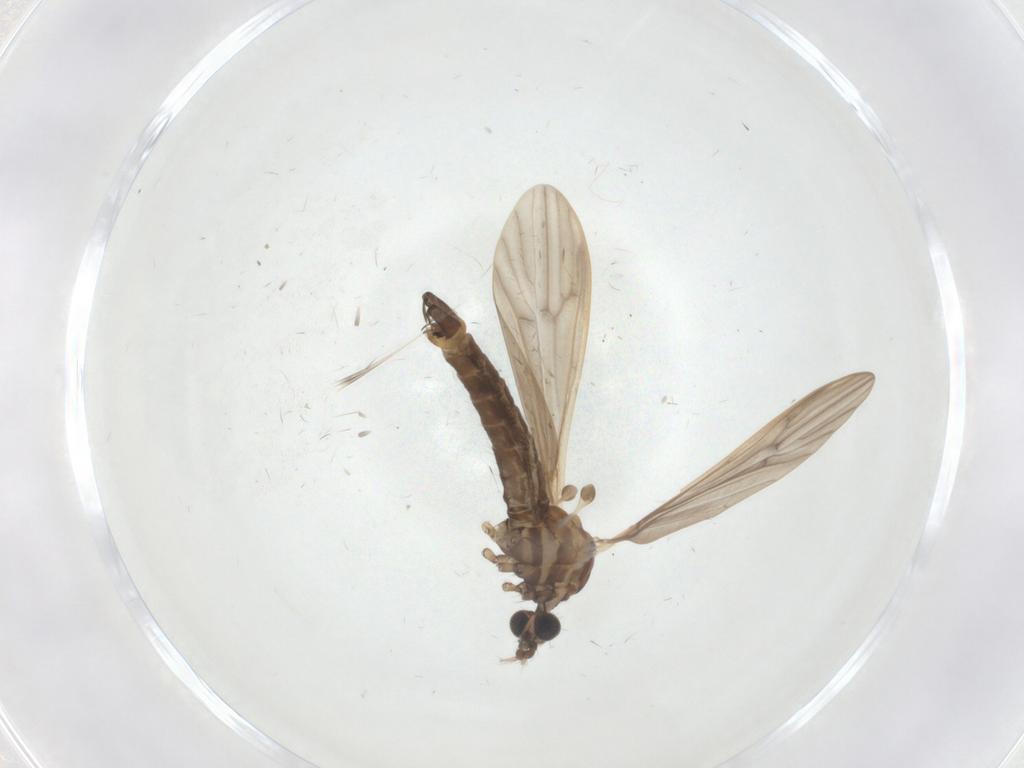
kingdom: Animalia
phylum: Arthropoda
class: Insecta
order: Diptera
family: Limoniidae
